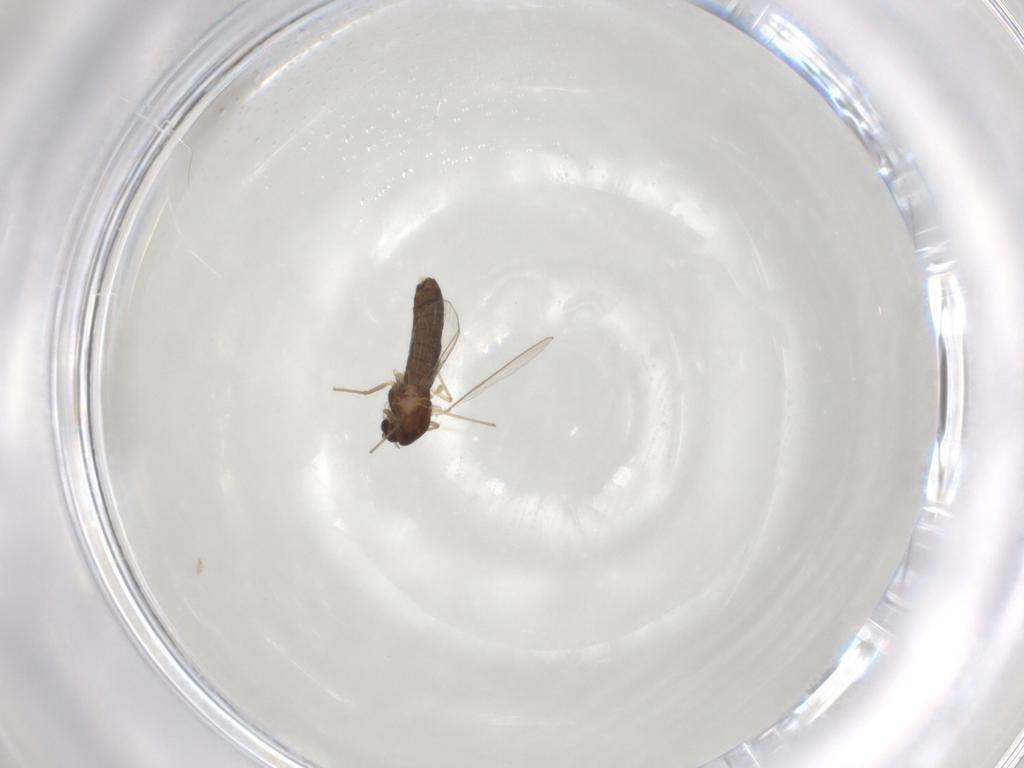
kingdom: Animalia
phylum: Arthropoda
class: Insecta
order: Diptera
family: Chironomidae
